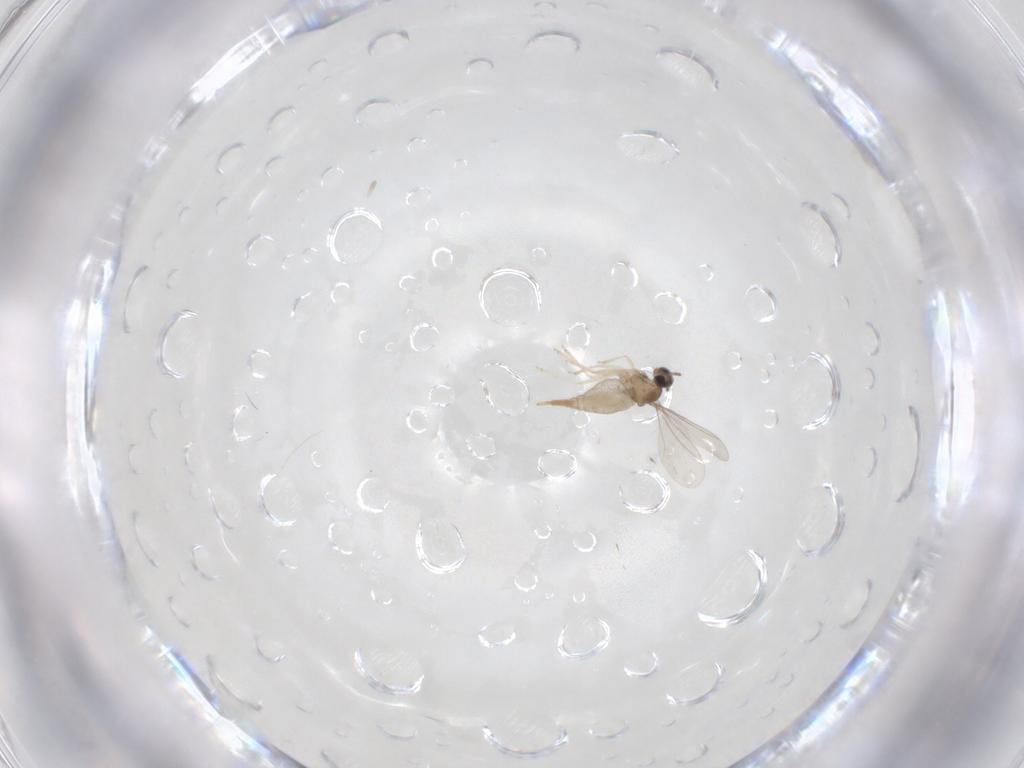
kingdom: Animalia
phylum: Arthropoda
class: Insecta
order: Diptera
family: Cecidomyiidae
